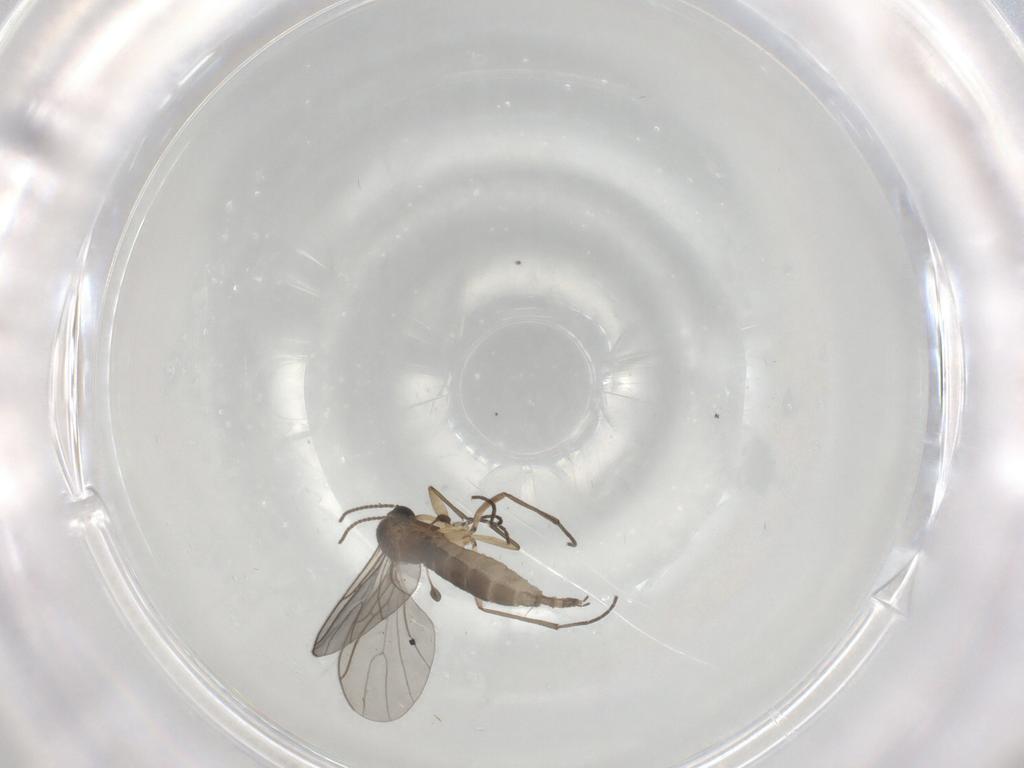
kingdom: Animalia
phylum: Arthropoda
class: Insecta
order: Diptera
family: Sciaridae
